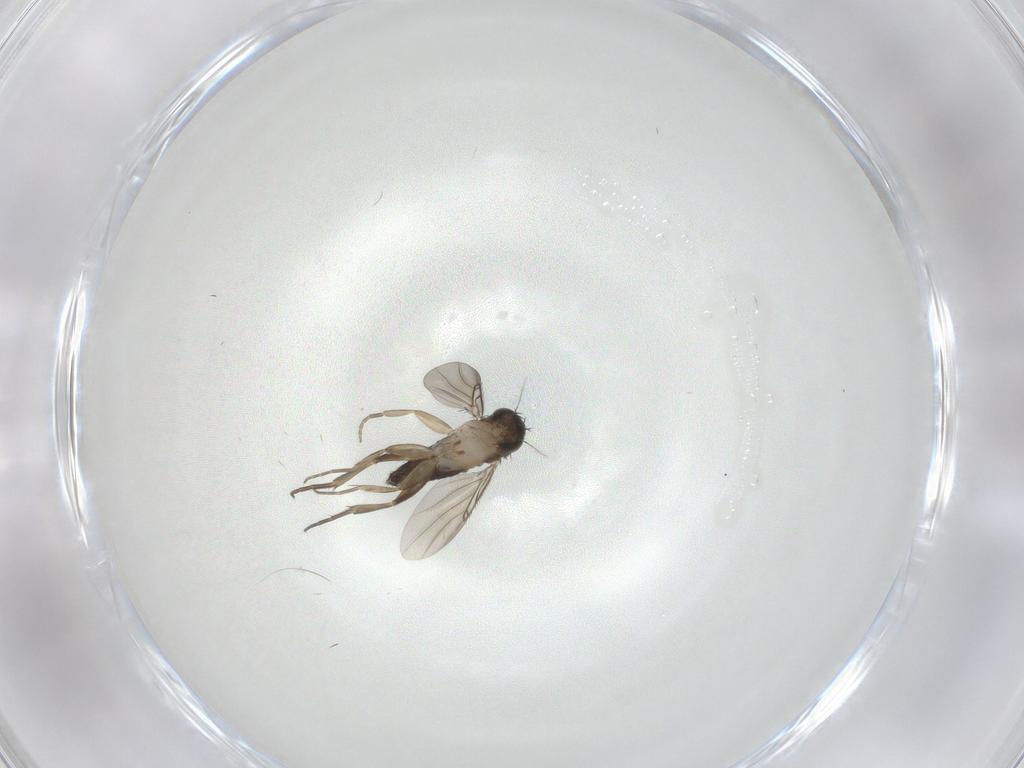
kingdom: Animalia
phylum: Arthropoda
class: Insecta
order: Diptera
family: Phoridae
